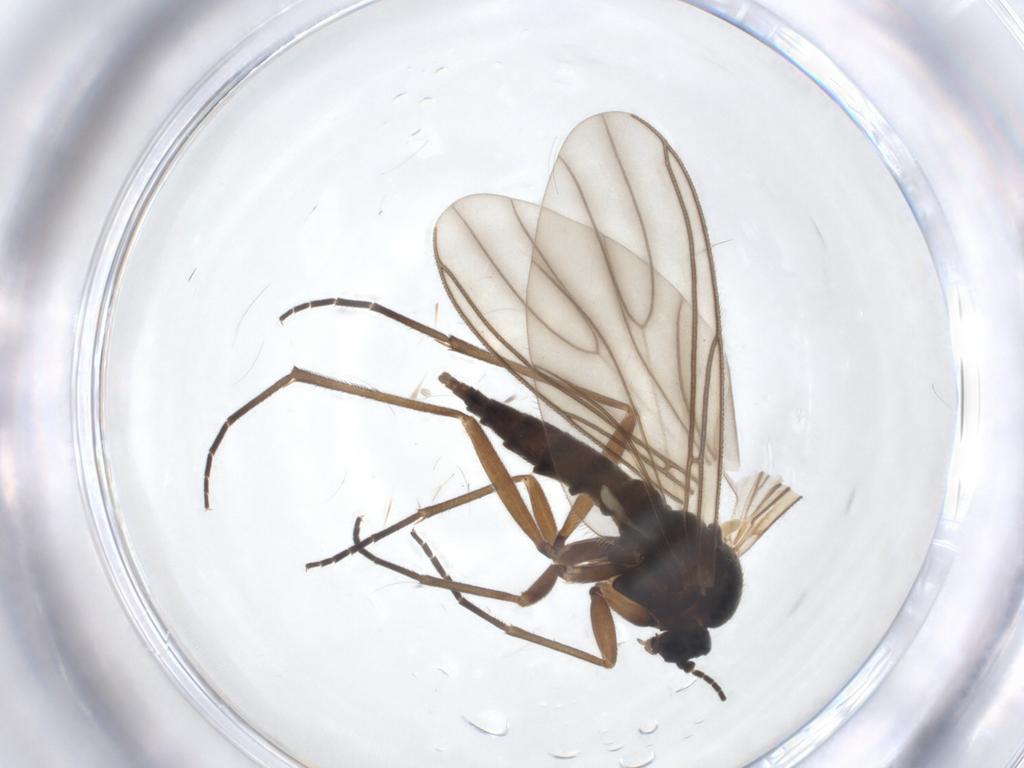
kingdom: Animalia
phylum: Arthropoda
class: Insecta
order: Diptera
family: Sciaridae
